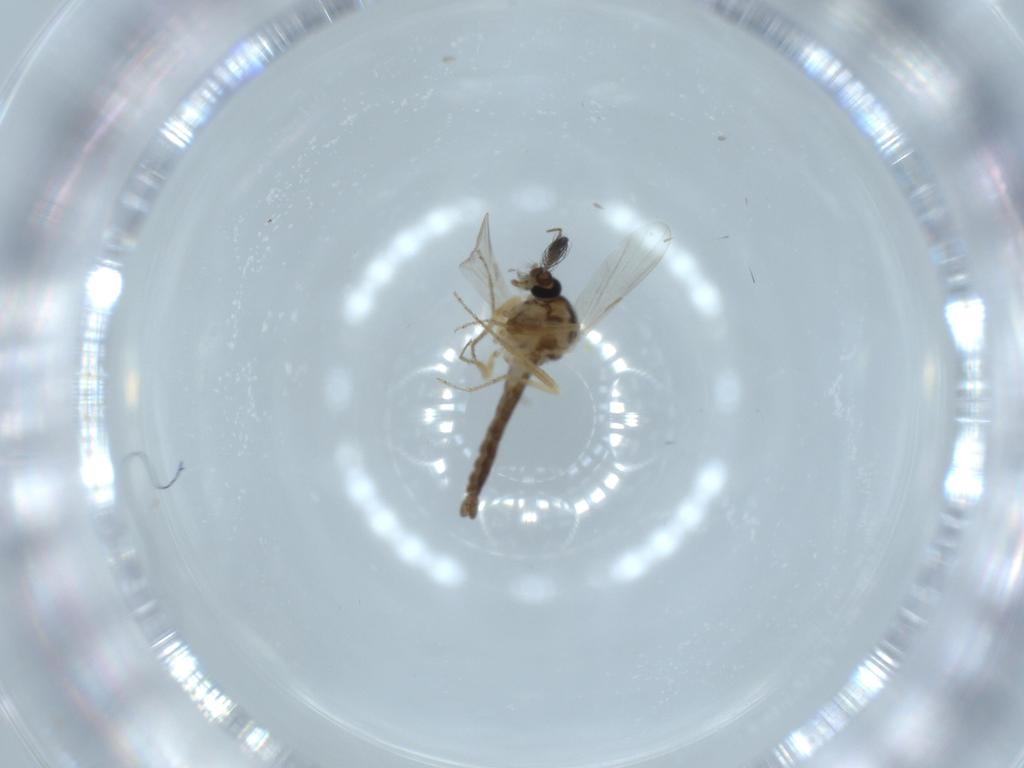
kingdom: Animalia
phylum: Arthropoda
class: Insecta
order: Diptera
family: Ceratopogonidae
